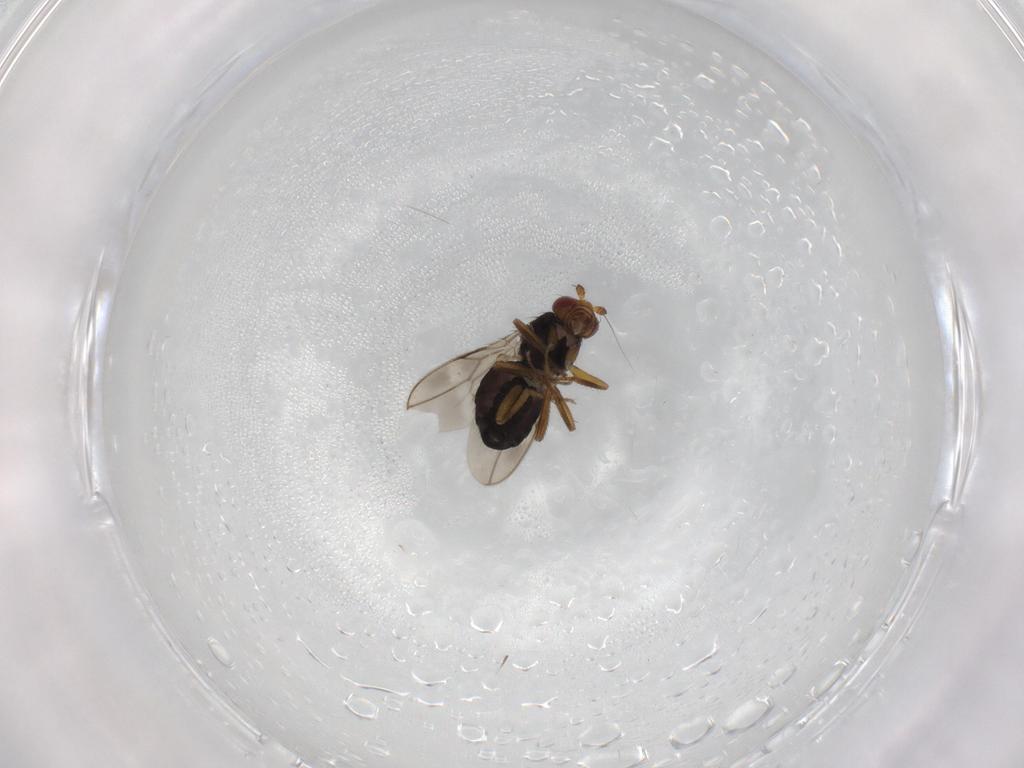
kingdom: Animalia
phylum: Arthropoda
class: Insecta
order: Diptera
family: Sphaeroceridae
